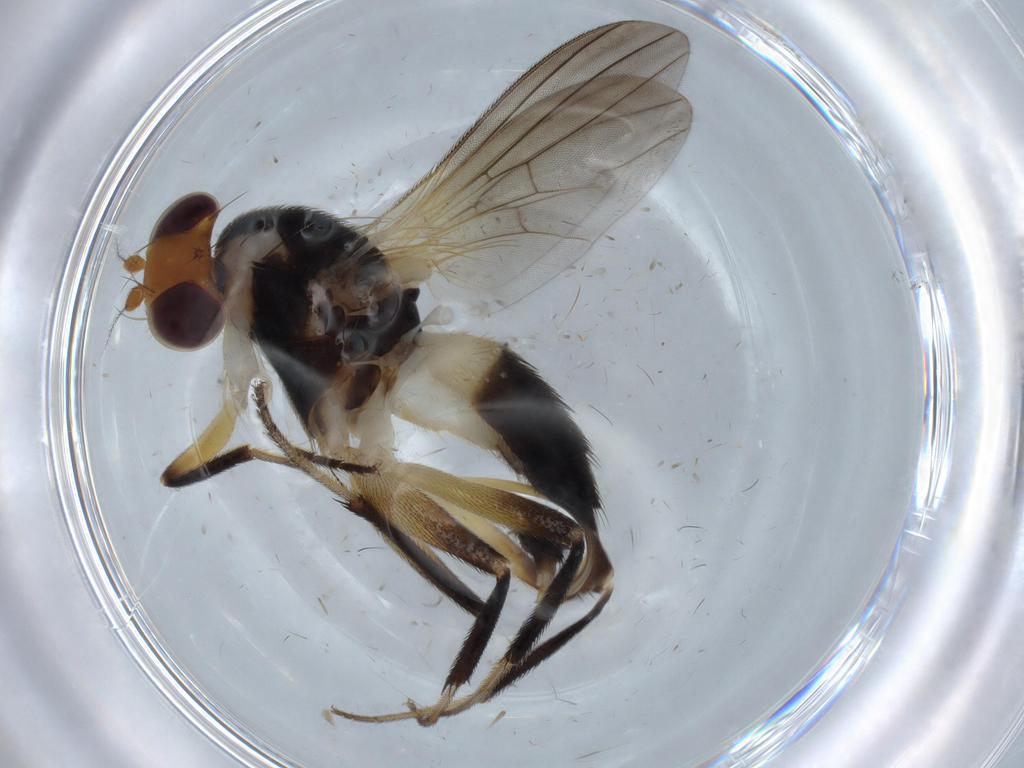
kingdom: Animalia
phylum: Arthropoda
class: Insecta
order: Diptera
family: Clusiidae
